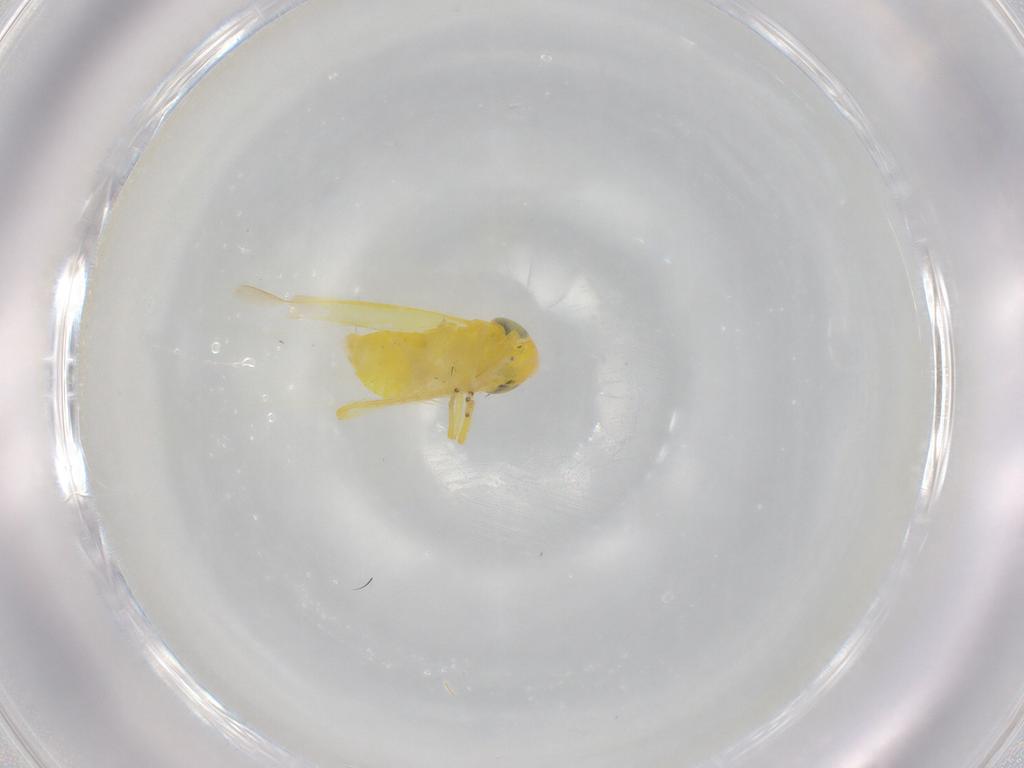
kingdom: Animalia
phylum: Arthropoda
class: Insecta
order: Hemiptera
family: Cicadellidae
